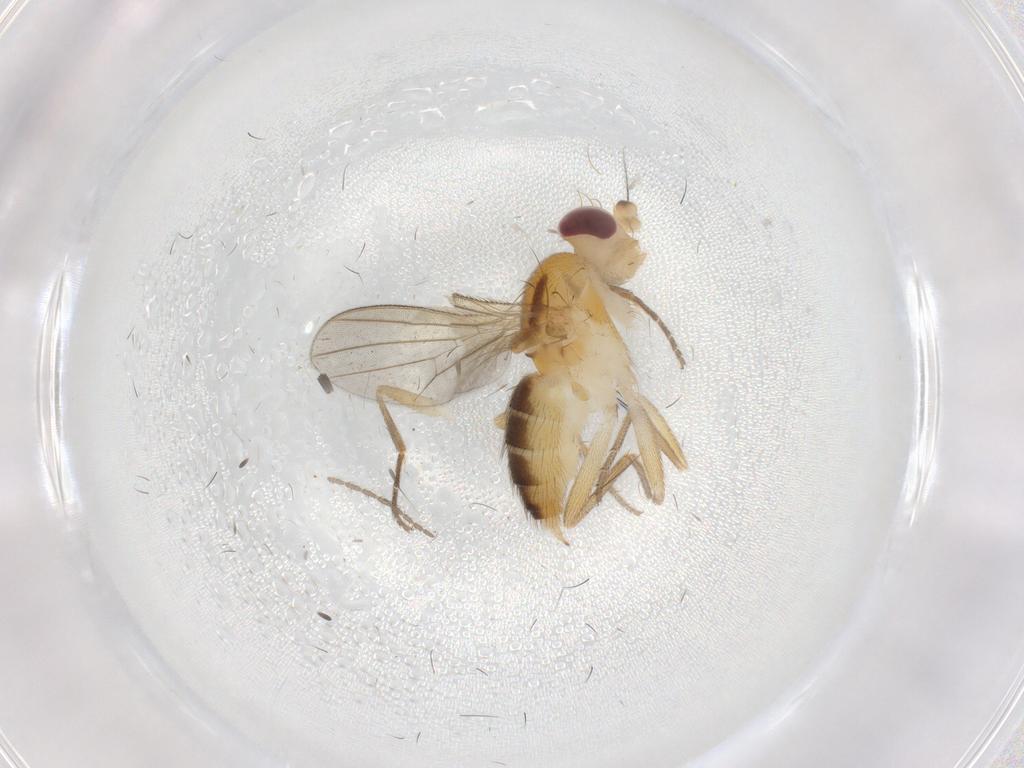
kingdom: Animalia
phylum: Arthropoda
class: Insecta
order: Diptera
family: Clusiidae
